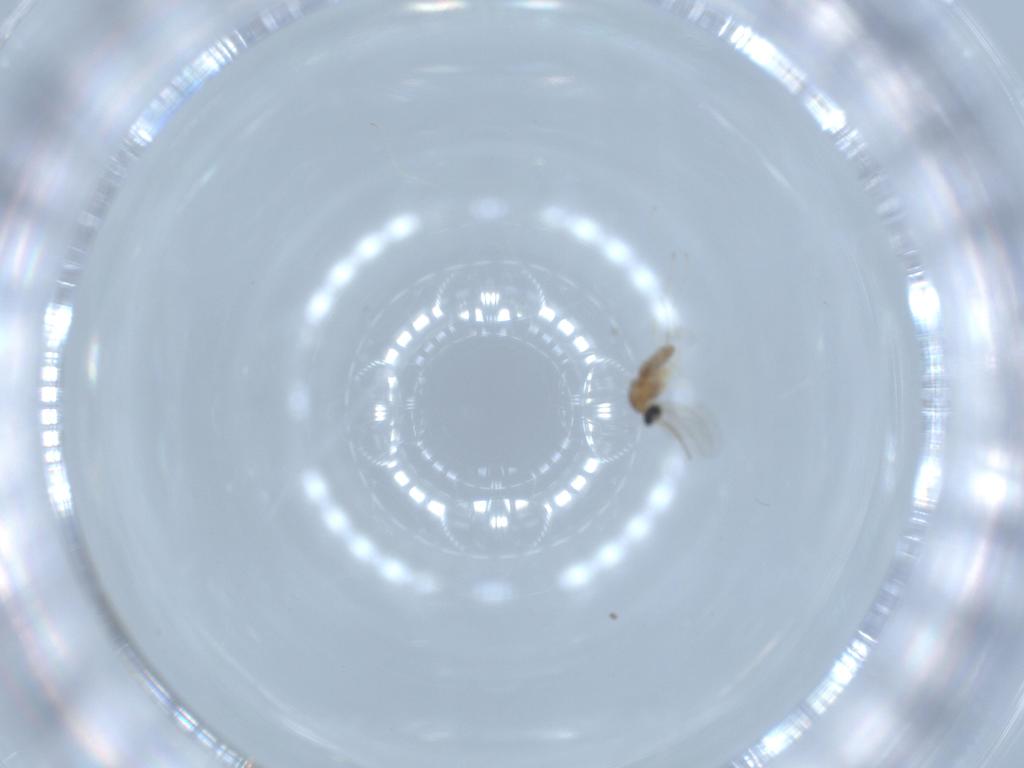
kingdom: Animalia
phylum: Arthropoda
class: Insecta
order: Diptera
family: Cecidomyiidae
